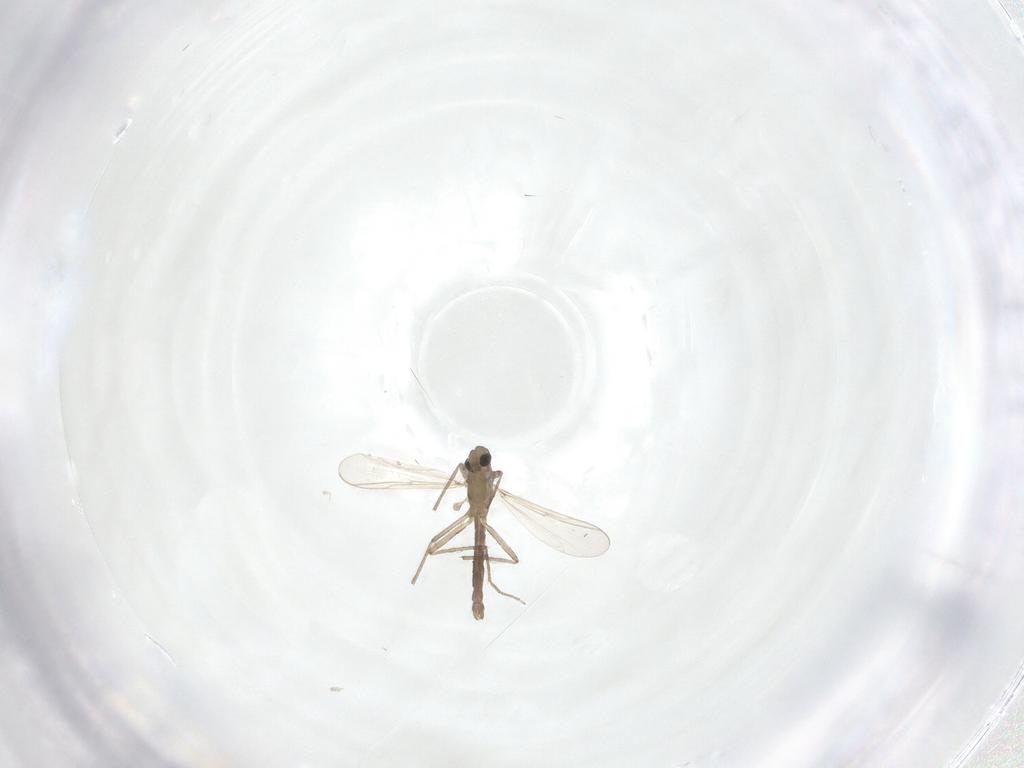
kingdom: Animalia
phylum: Arthropoda
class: Insecta
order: Diptera
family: Chironomidae
